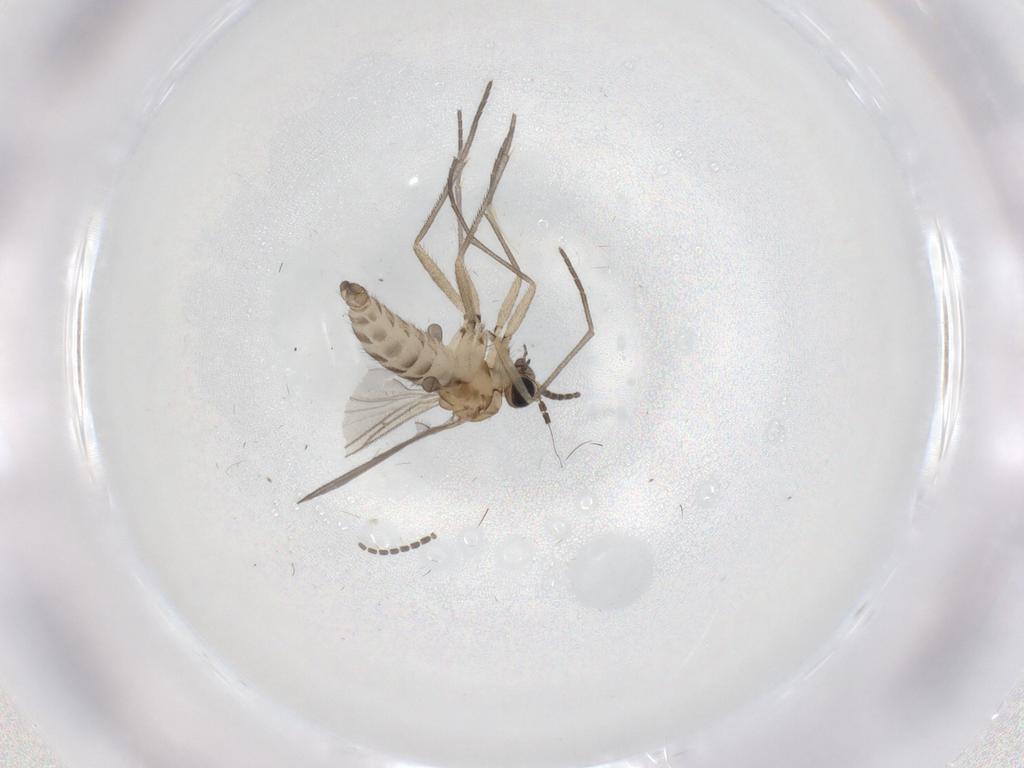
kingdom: Animalia
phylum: Arthropoda
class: Insecta
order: Diptera
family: Sciaridae
